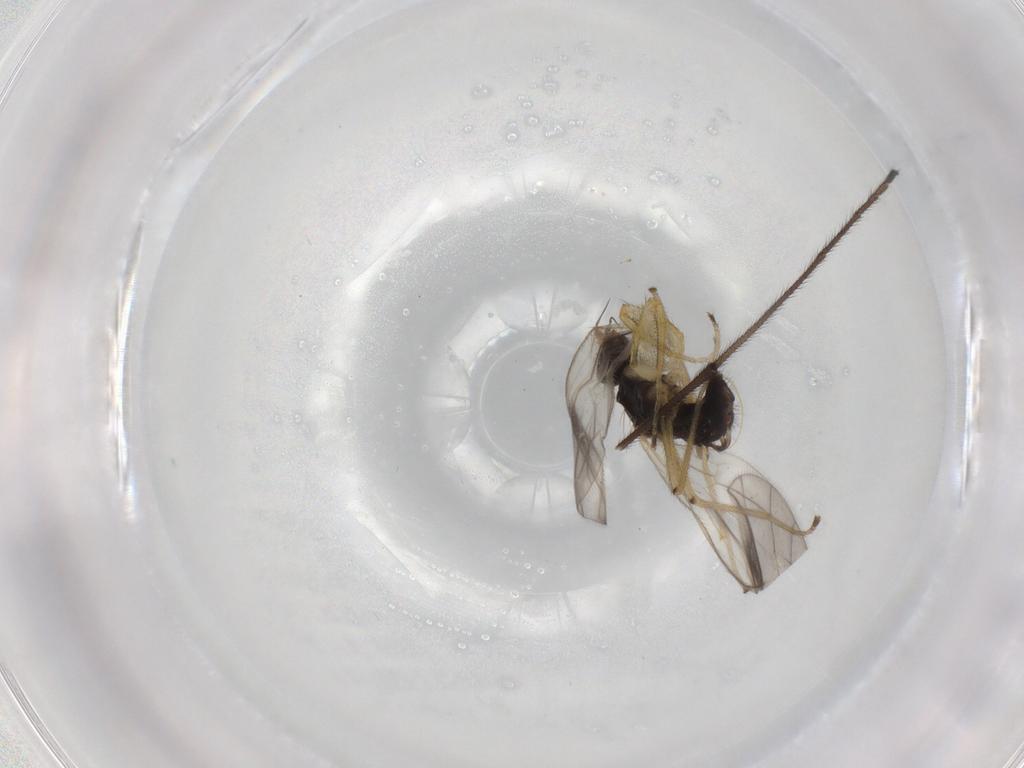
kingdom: Animalia
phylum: Arthropoda
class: Insecta
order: Diptera
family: Empididae
